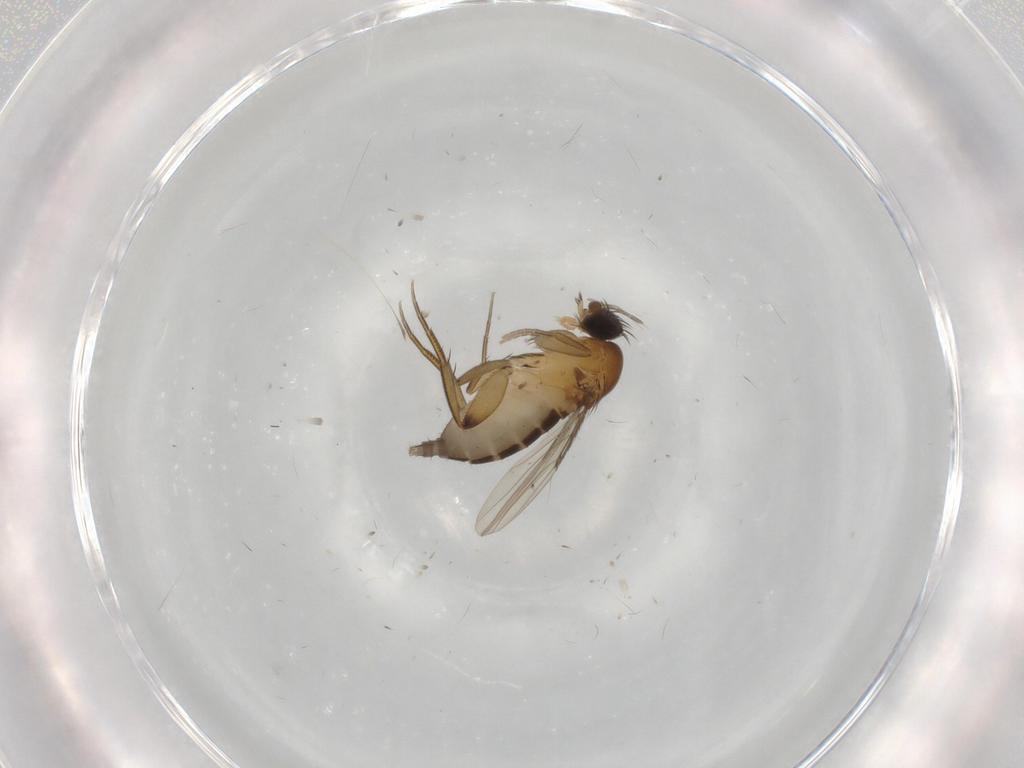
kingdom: Animalia
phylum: Arthropoda
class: Insecta
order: Diptera
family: Phoridae
